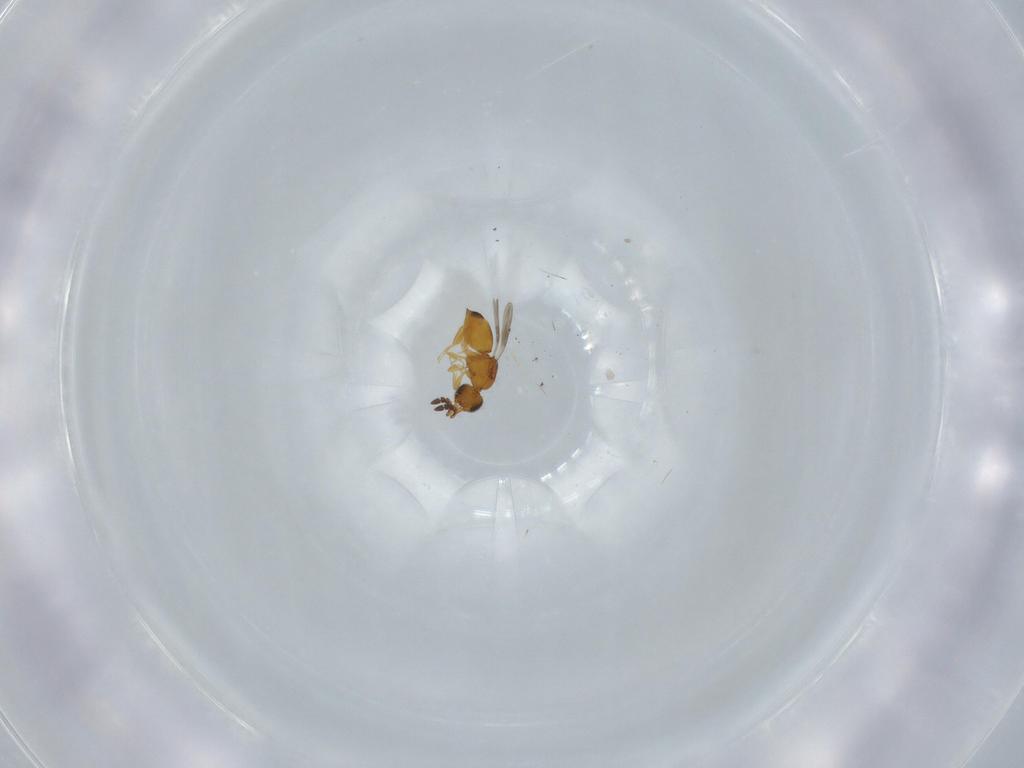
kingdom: Animalia
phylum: Arthropoda
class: Insecta
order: Hymenoptera
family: Ceraphronidae
